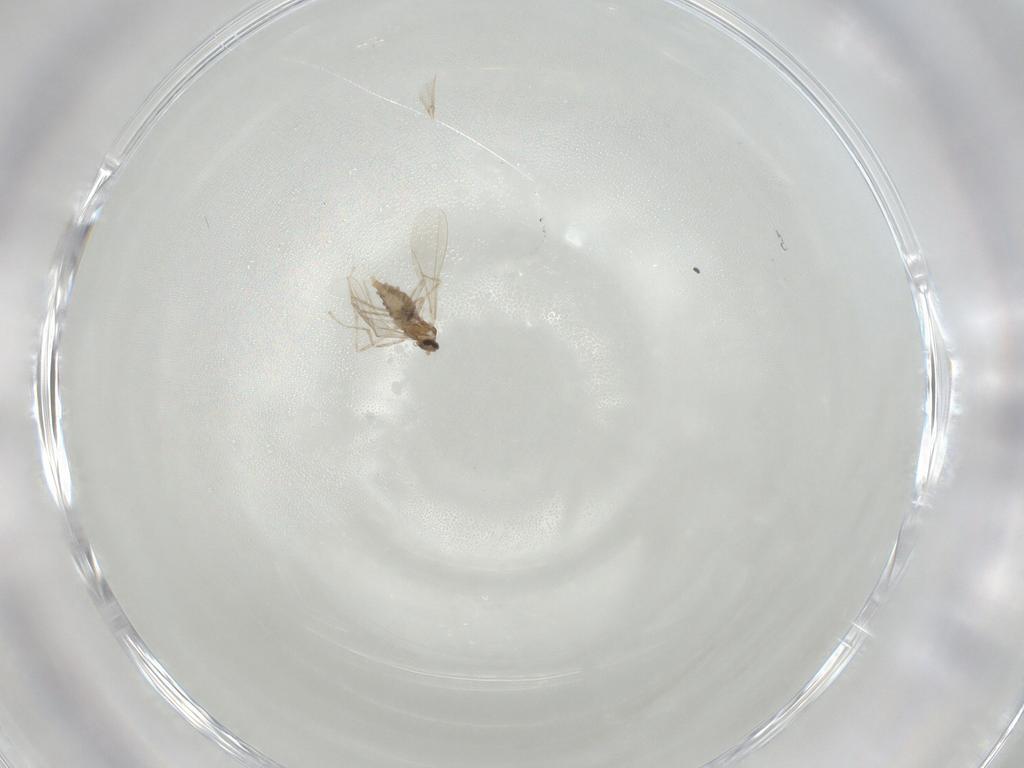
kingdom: Animalia
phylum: Arthropoda
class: Insecta
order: Diptera
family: Cecidomyiidae
